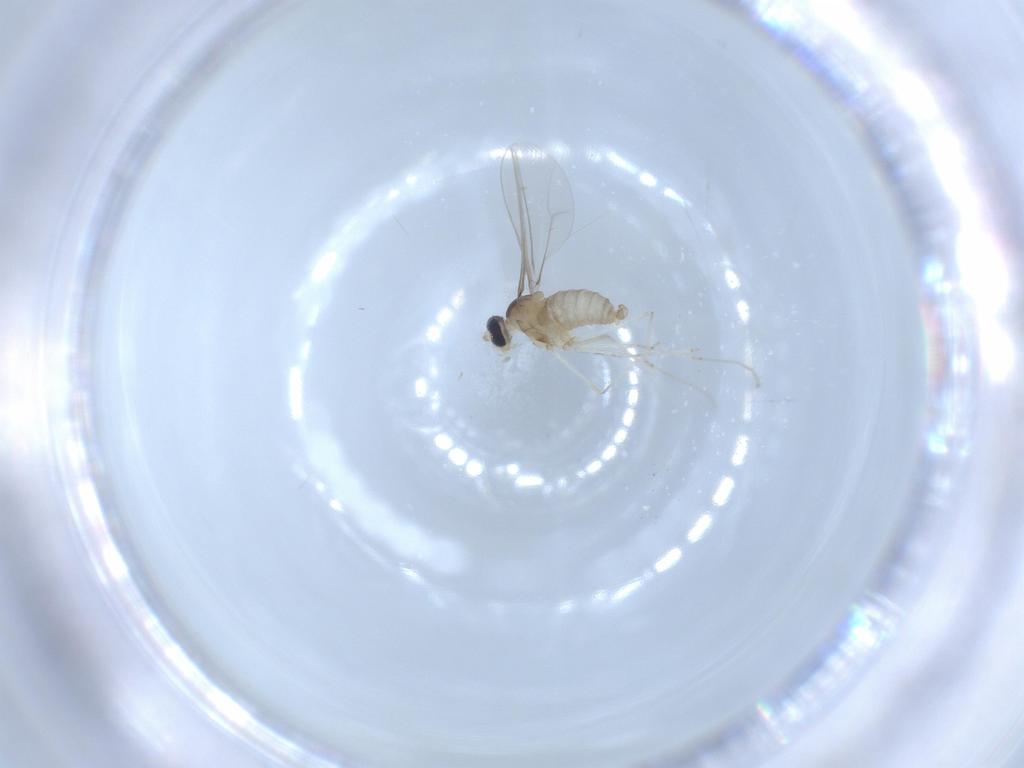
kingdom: Animalia
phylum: Arthropoda
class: Insecta
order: Diptera
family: Cecidomyiidae
